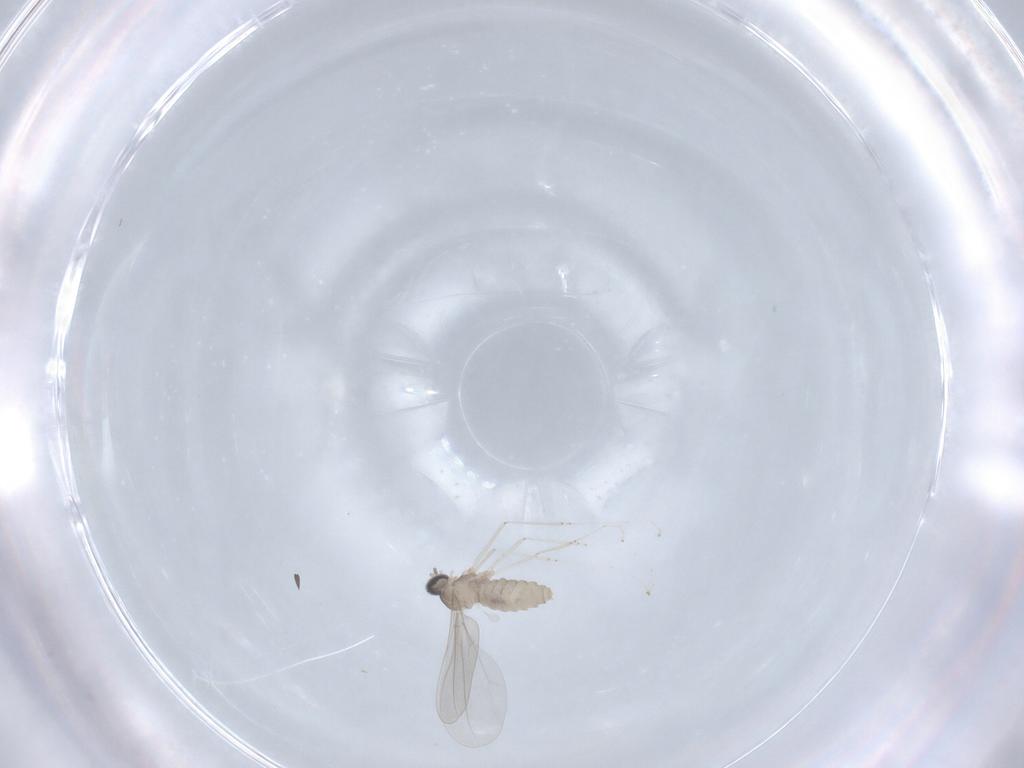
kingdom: Animalia
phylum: Arthropoda
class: Insecta
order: Diptera
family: Cecidomyiidae
